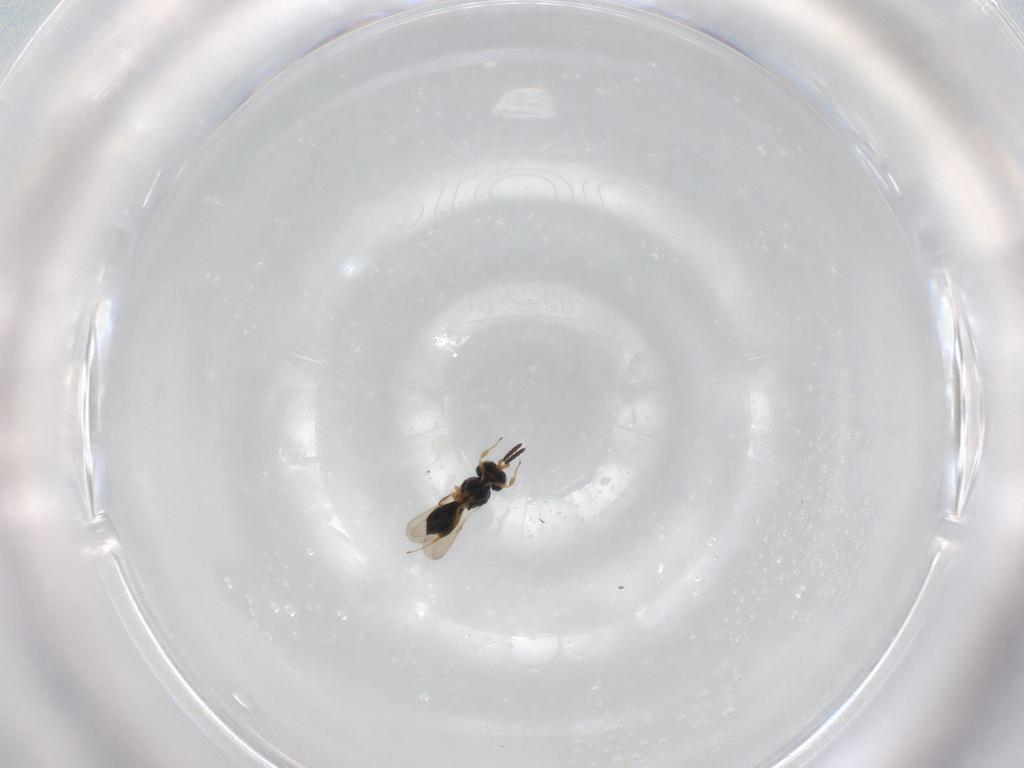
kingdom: Animalia
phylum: Arthropoda
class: Insecta
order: Hymenoptera
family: Scelionidae
